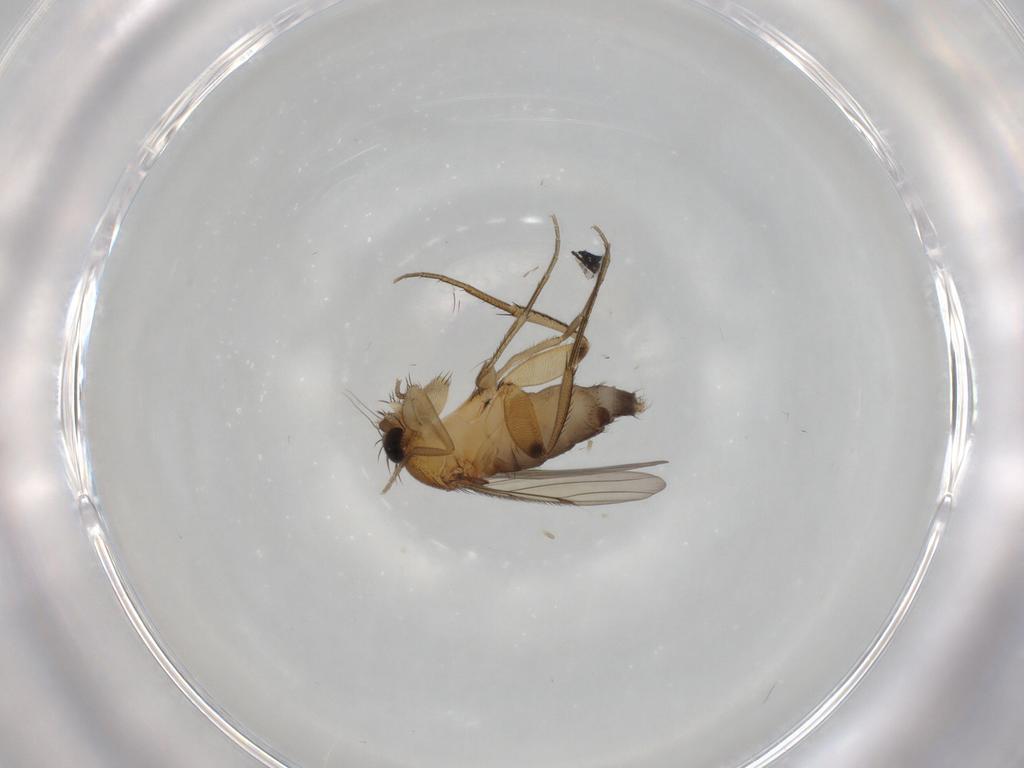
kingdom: Animalia
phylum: Arthropoda
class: Insecta
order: Diptera
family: Phoridae
